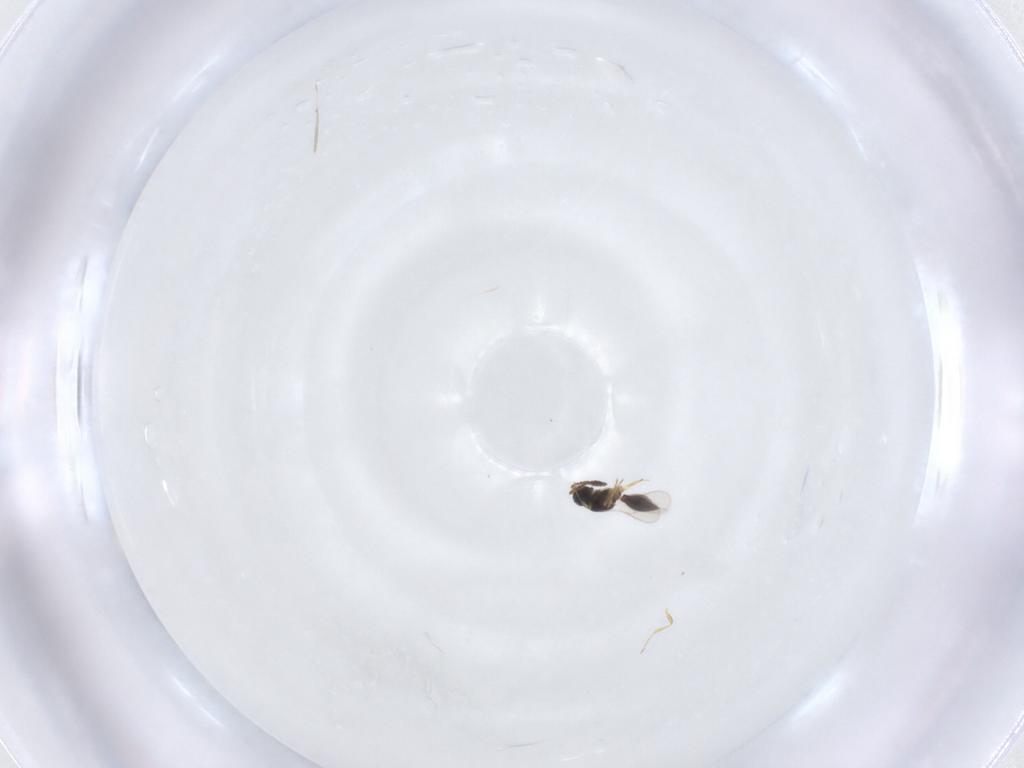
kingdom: Animalia
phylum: Arthropoda
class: Insecta
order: Hymenoptera
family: Scelionidae
